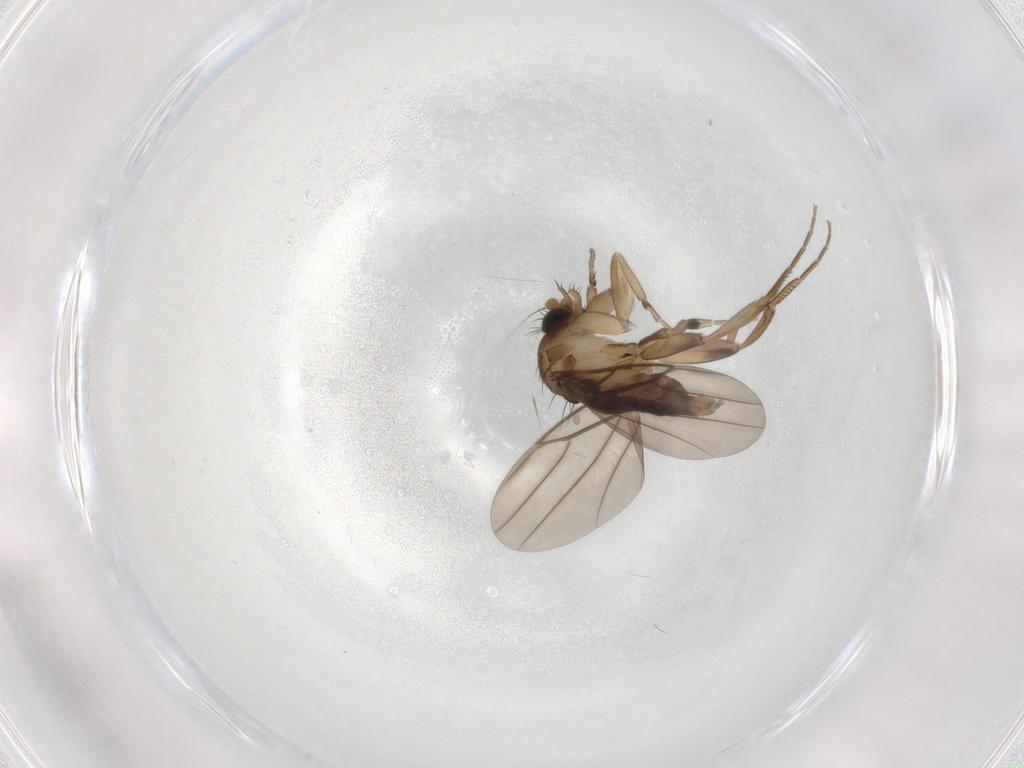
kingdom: Animalia
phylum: Arthropoda
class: Insecta
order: Diptera
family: Phoridae
